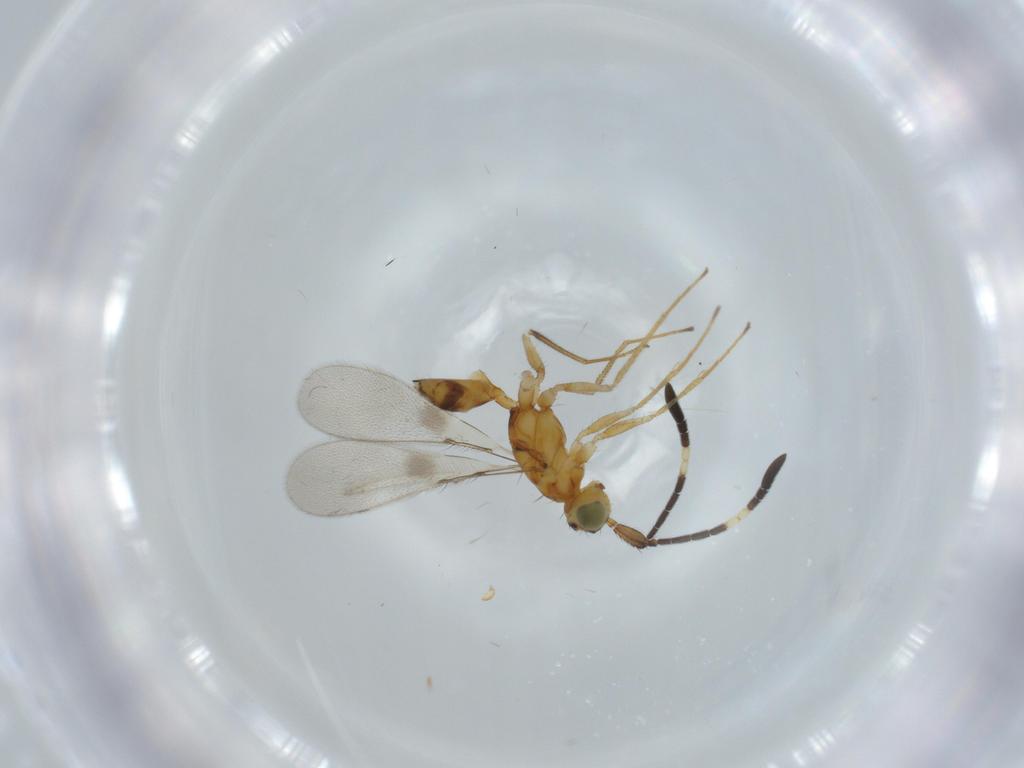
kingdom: Animalia
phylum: Arthropoda
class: Insecta
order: Hymenoptera
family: Mymaridae
